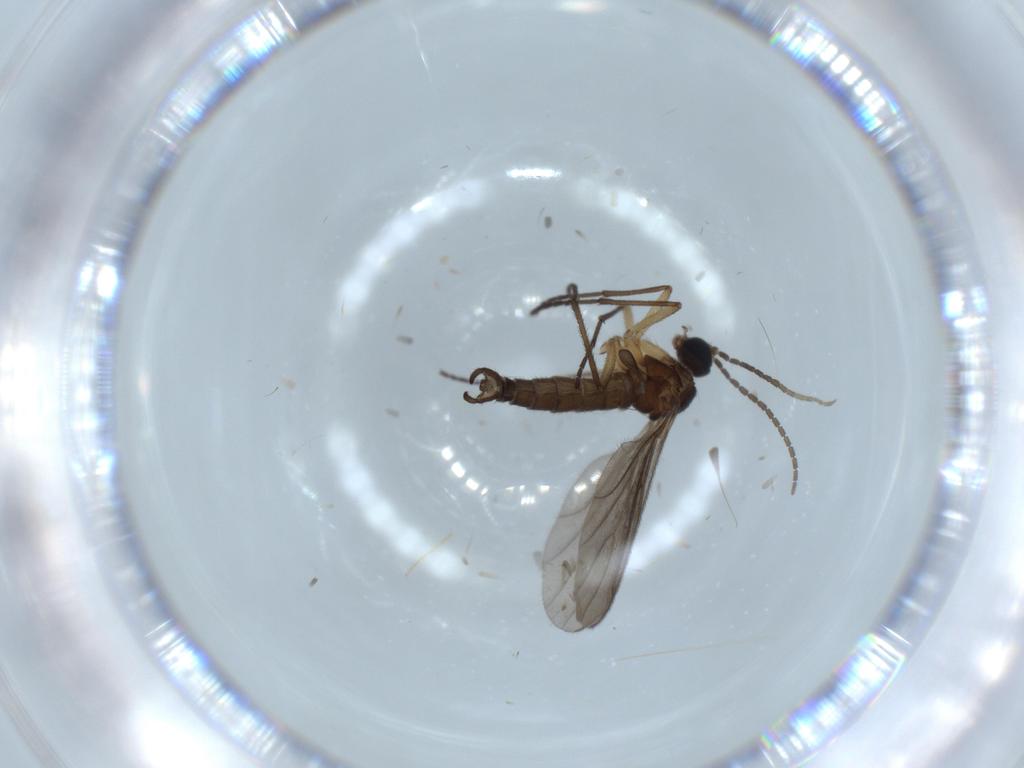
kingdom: Animalia
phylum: Arthropoda
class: Insecta
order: Diptera
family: Sciaridae
